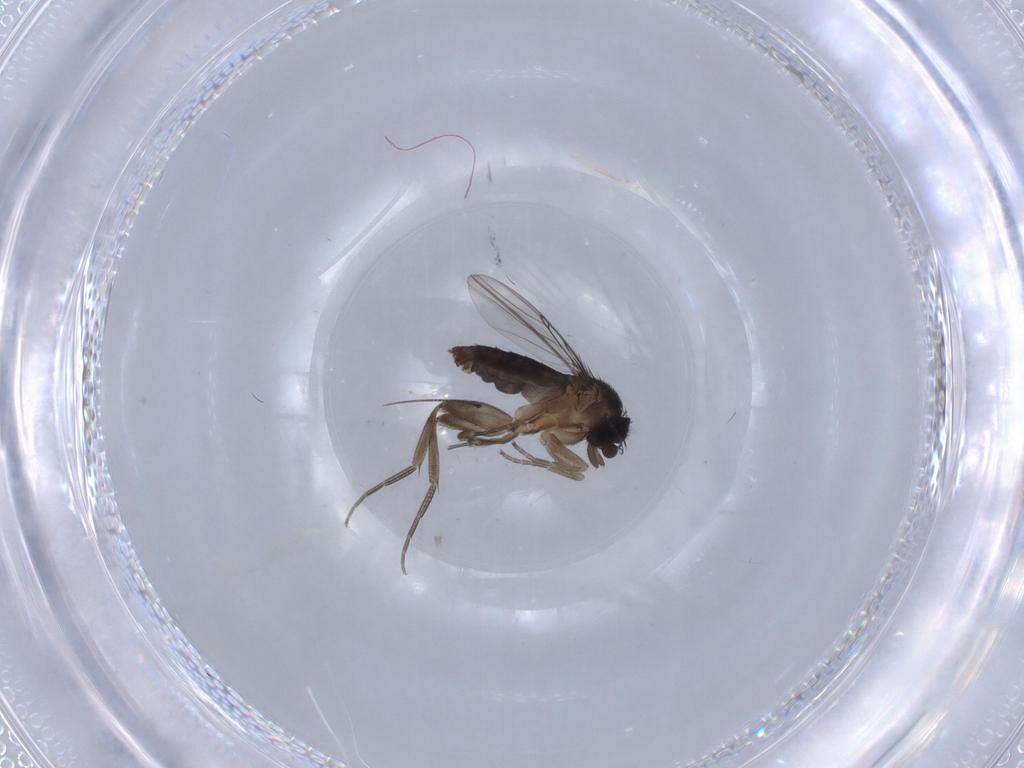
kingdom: Animalia
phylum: Arthropoda
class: Insecta
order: Diptera
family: Phoridae
